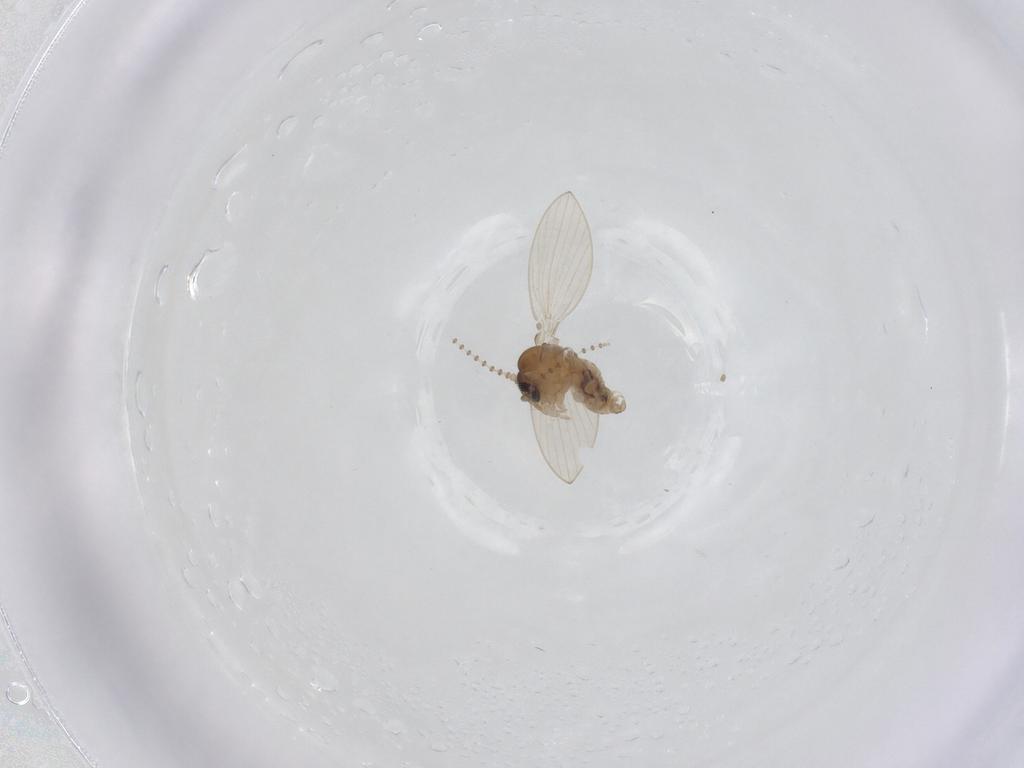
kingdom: Animalia
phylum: Arthropoda
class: Insecta
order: Diptera
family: Psychodidae
